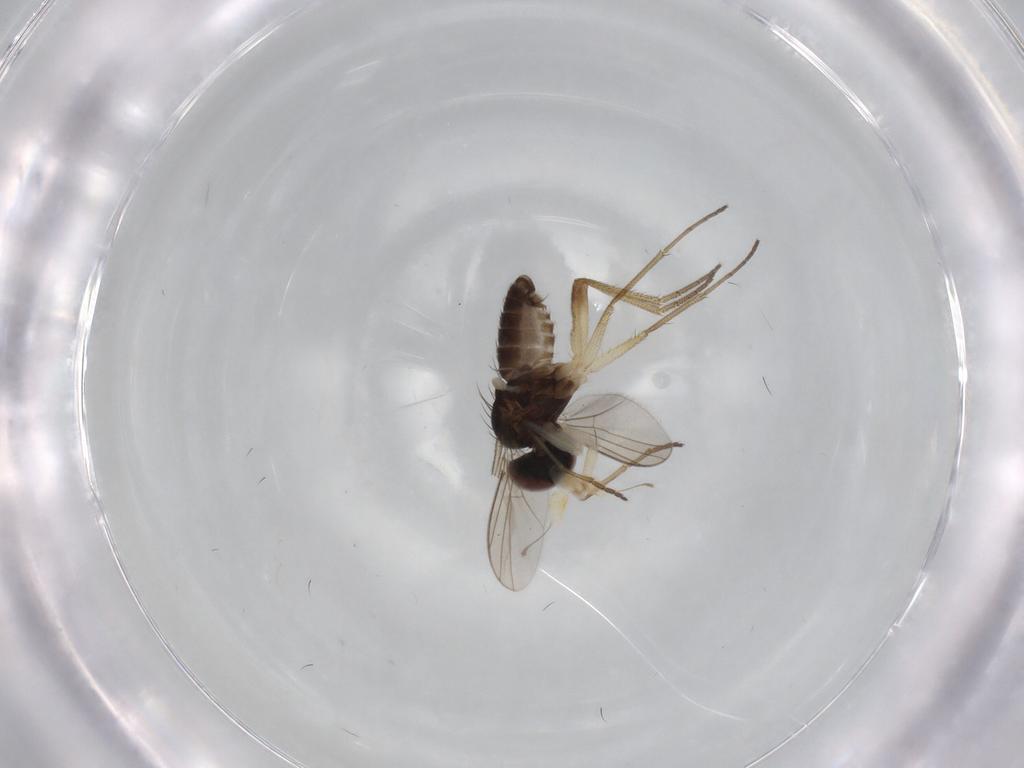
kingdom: Animalia
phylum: Arthropoda
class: Insecta
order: Diptera
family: Dolichopodidae
